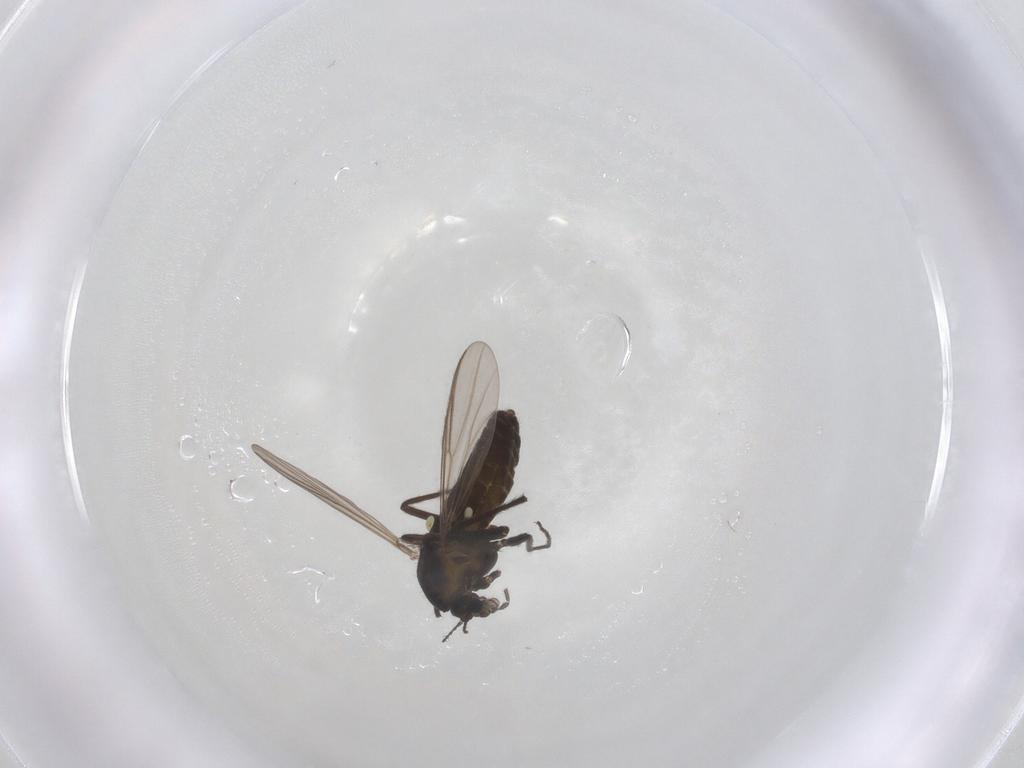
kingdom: Animalia
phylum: Arthropoda
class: Insecta
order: Diptera
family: Chironomidae
